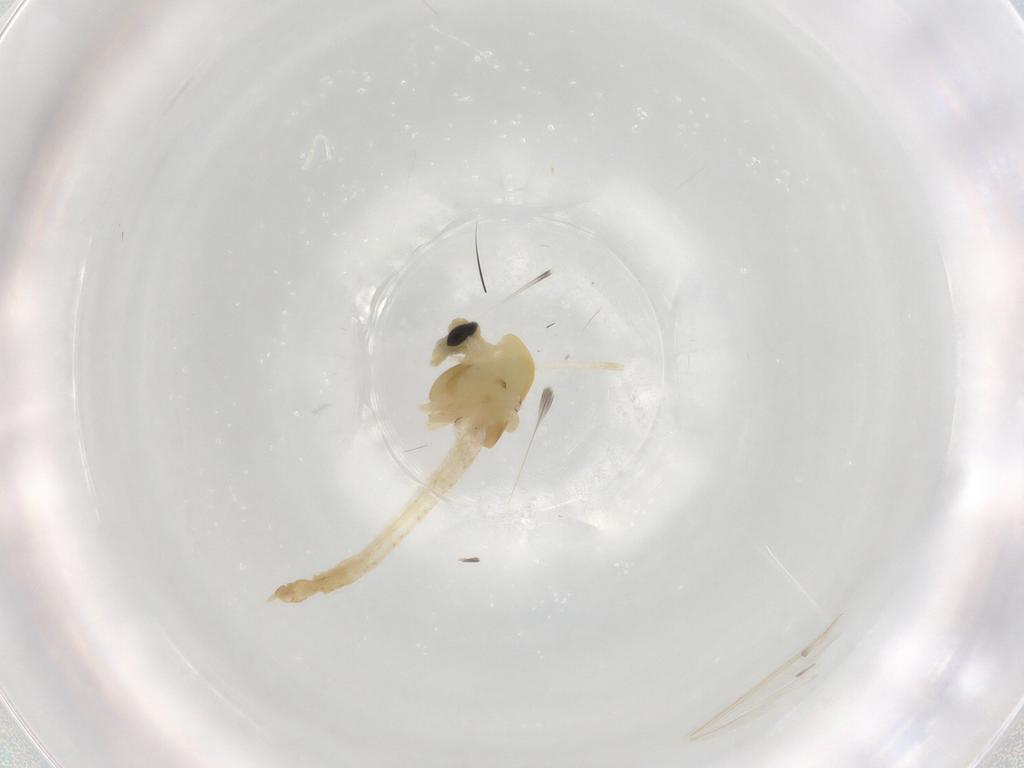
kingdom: Animalia
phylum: Arthropoda
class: Insecta
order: Diptera
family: Chironomidae
